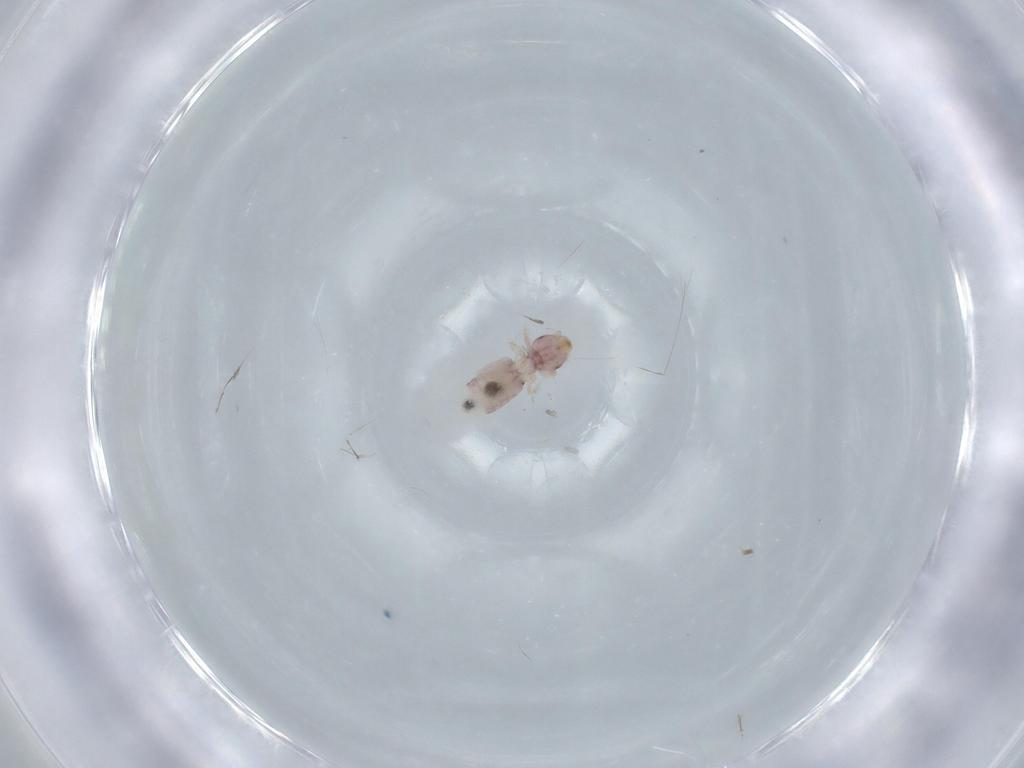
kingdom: Animalia
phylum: Arthropoda
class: Insecta
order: Psocodea
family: Liposcelididae
